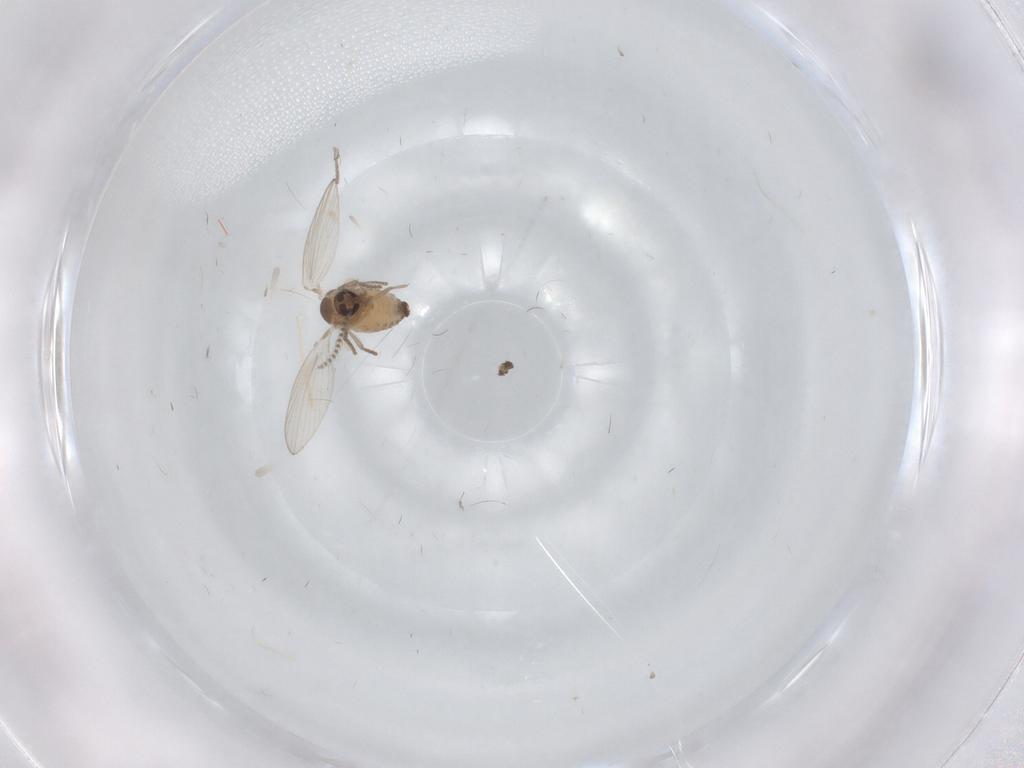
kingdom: Animalia
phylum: Arthropoda
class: Insecta
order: Diptera
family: Psychodidae
